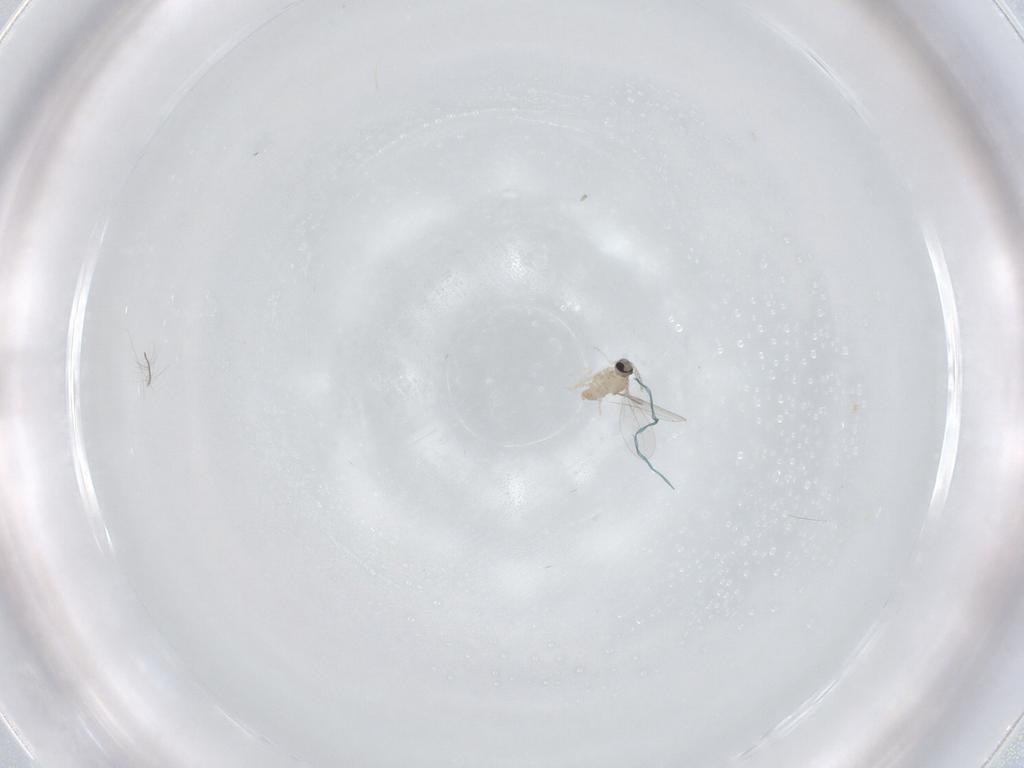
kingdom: Animalia
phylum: Arthropoda
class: Insecta
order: Diptera
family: Cecidomyiidae
